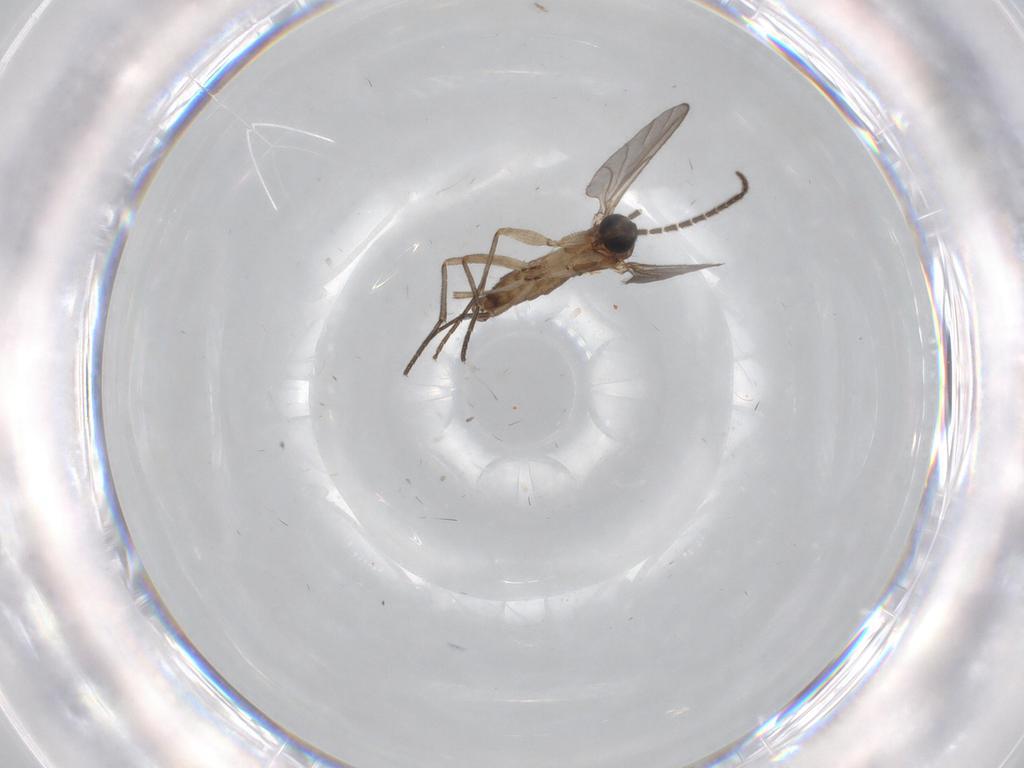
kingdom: Animalia
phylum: Arthropoda
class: Insecta
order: Diptera
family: Sciaridae
